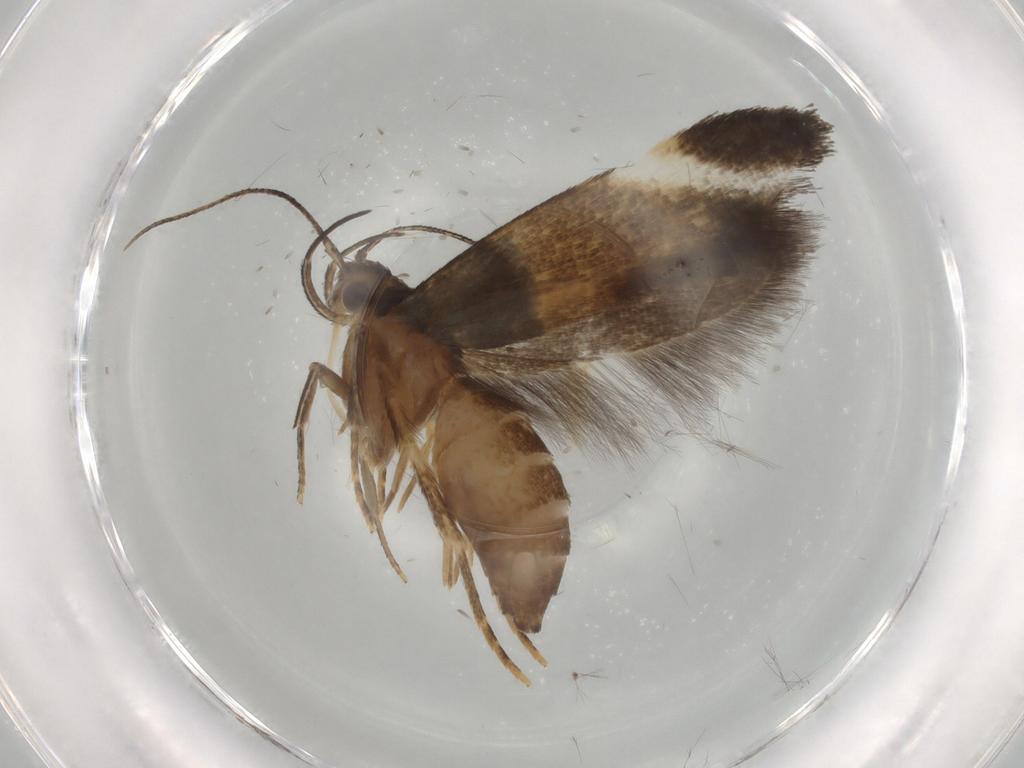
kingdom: Animalia
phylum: Arthropoda
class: Insecta
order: Lepidoptera
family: Cosmopterigidae
